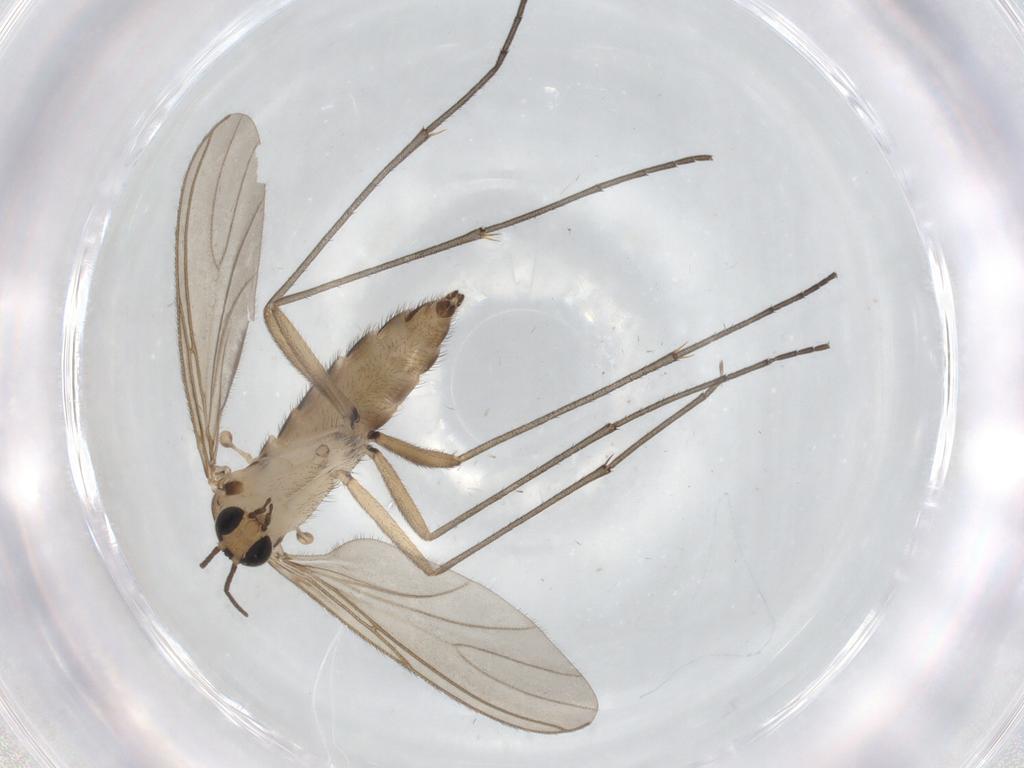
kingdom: Animalia
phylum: Arthropoda
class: Insecta
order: Diptera
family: Sciaridae
